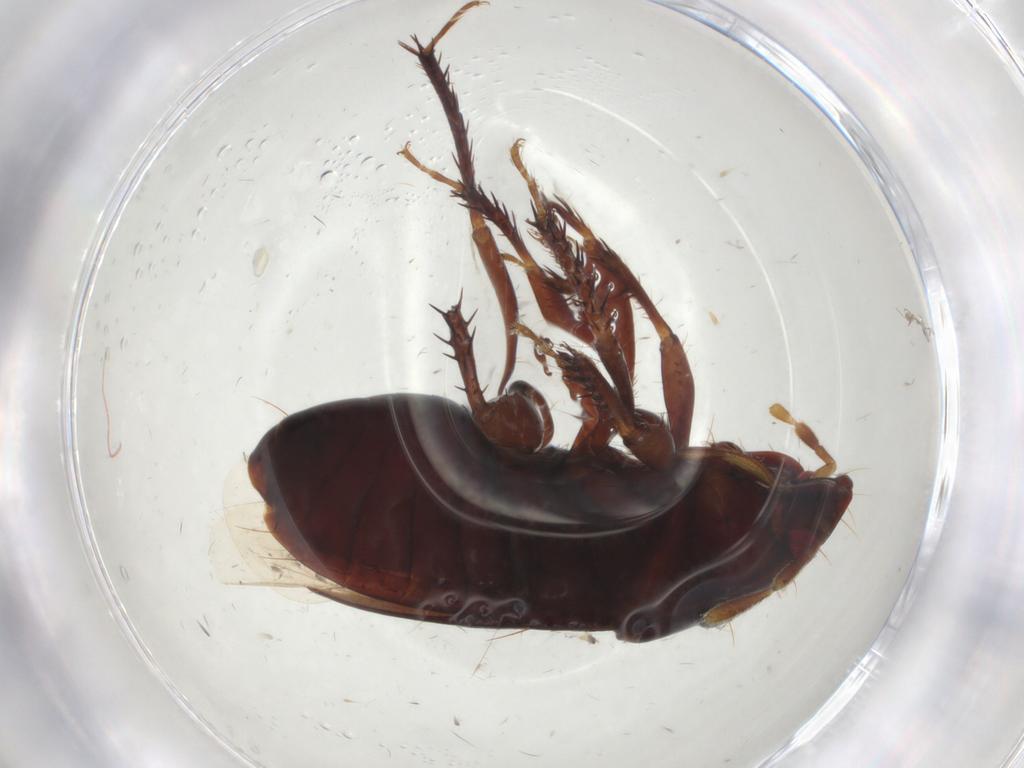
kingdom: Animalia
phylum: Arthropoda
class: Insecta
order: Hemiptera
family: Cydnidae
